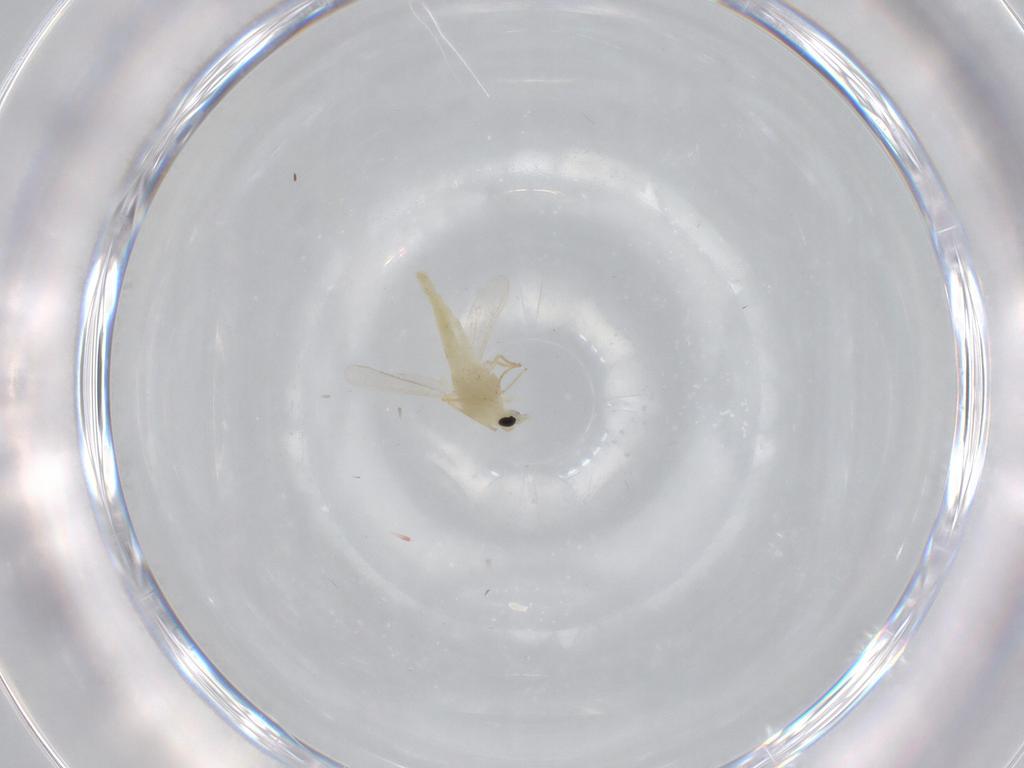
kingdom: Animalia
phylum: Arthropoda
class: Insecta
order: Diptera
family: Chironomidae
